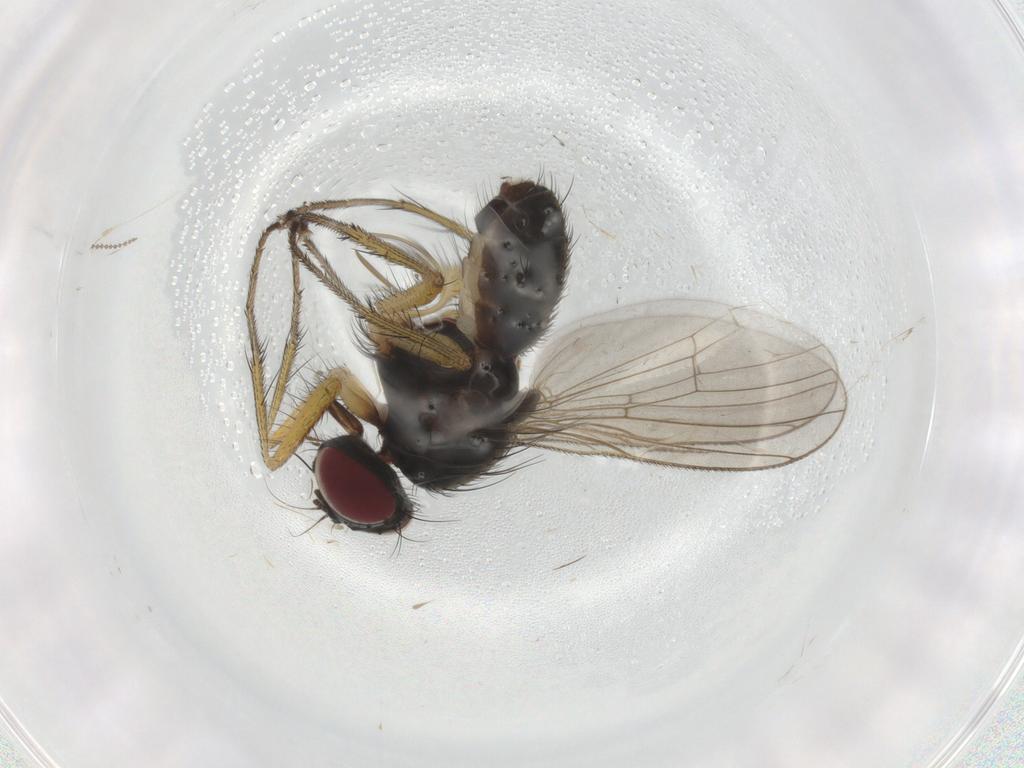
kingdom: Animalia
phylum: Arthropoda
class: Insecta
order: Diptera
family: Muscidae
